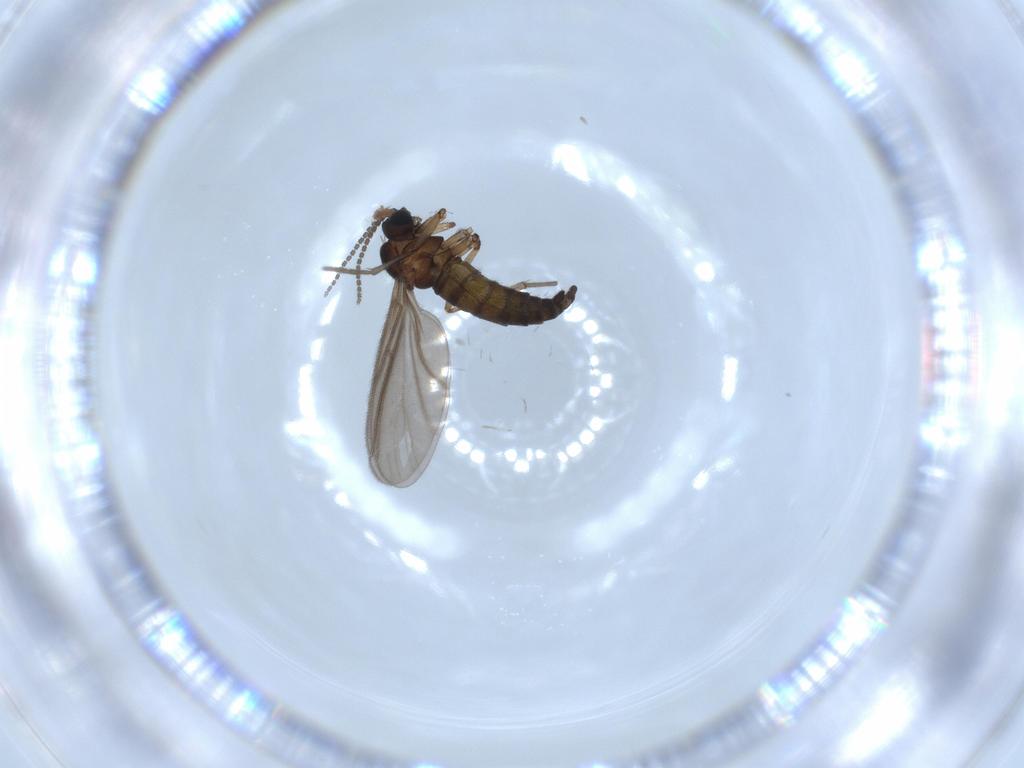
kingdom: Animalia
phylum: Arthropoda
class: Insecta
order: Diptera
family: Sciaridae
